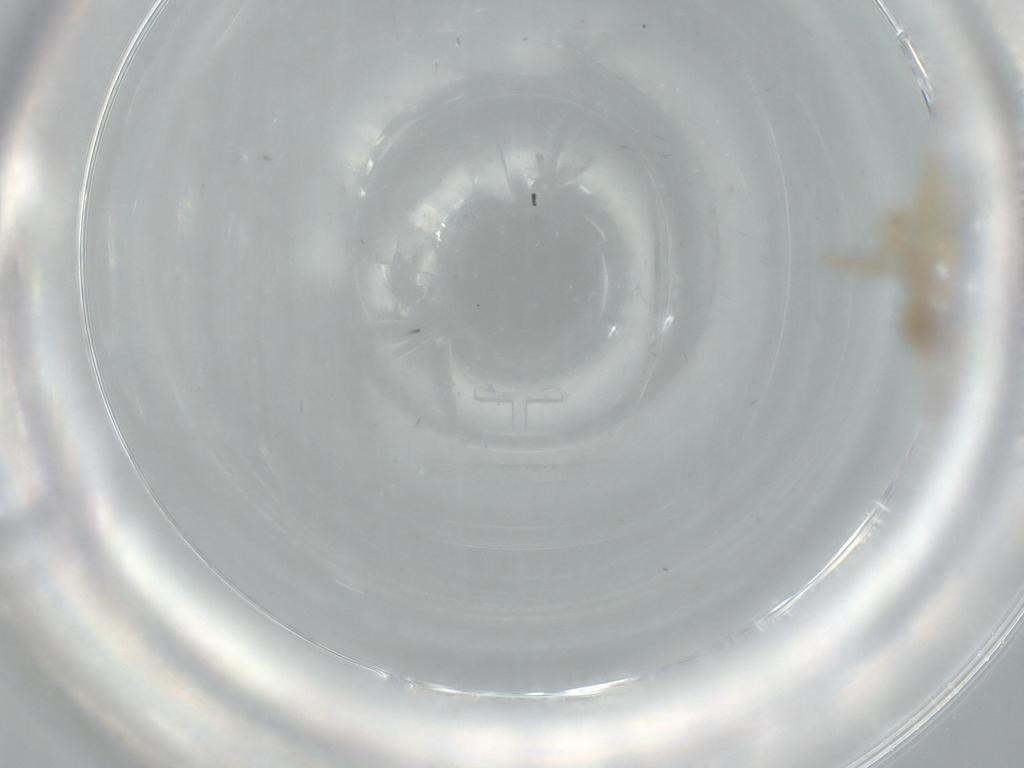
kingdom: Animalia
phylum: Arthropoda
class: Insecta
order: Diptera
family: Cecidomyiidae
